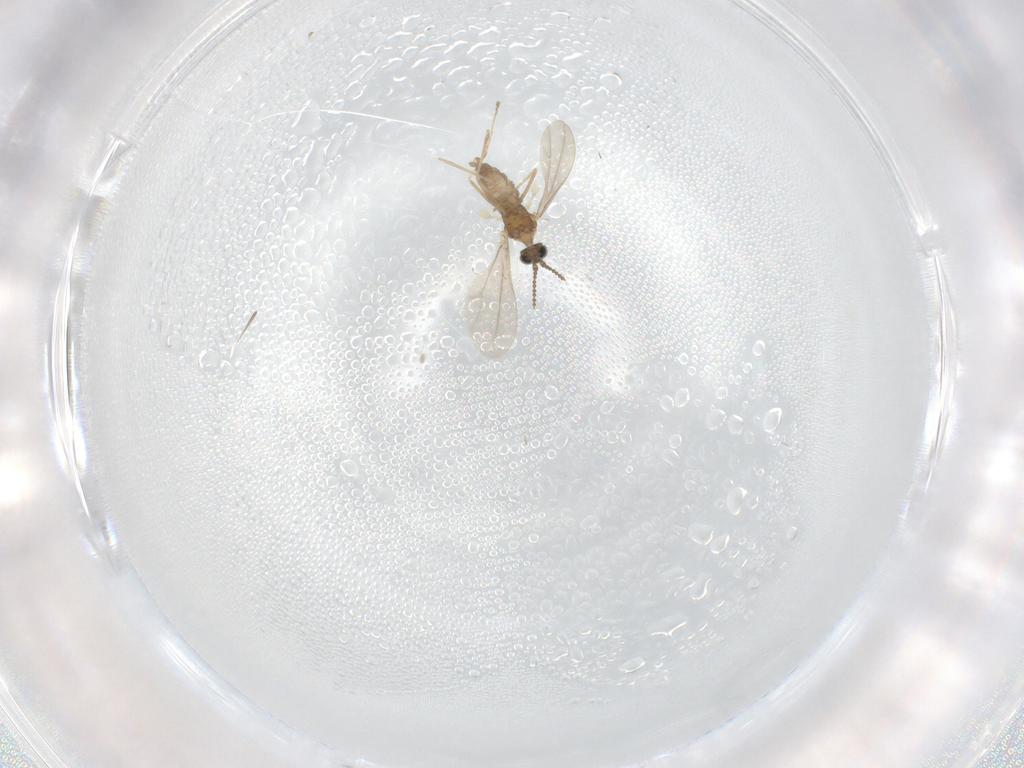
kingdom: Animalia
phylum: Arthropoda
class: Insecta
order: Diptera
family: Cecidomyiidae
